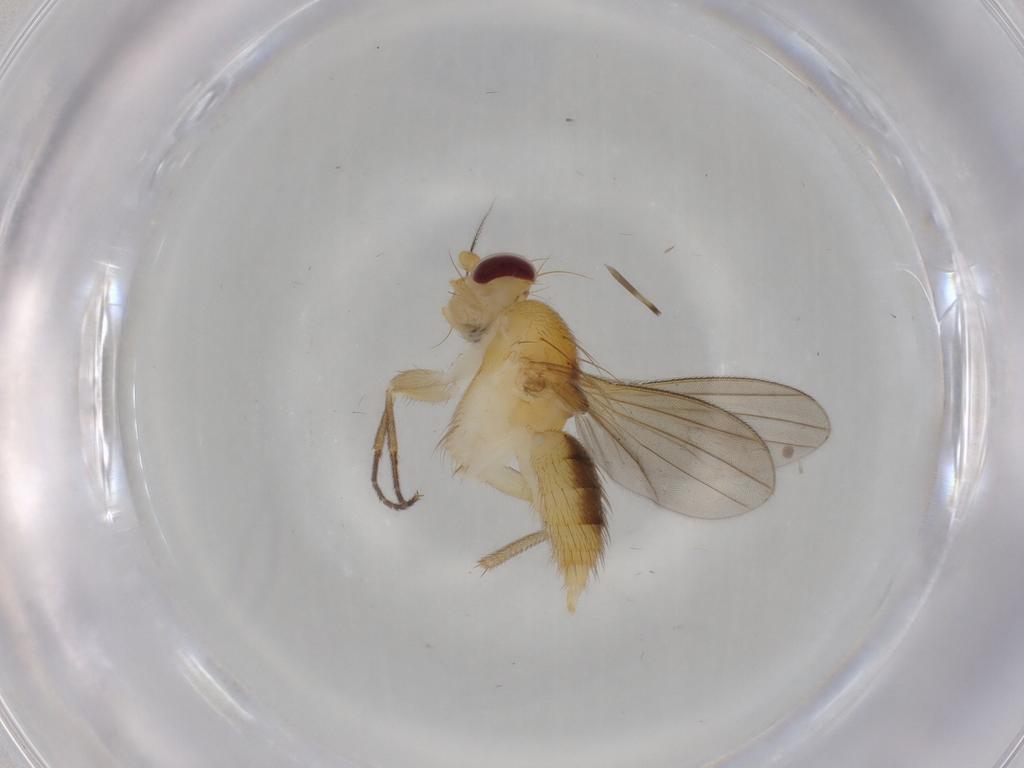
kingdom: Animalia
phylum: Arthropoda
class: Insecta
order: Diptera
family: Clusiidae
